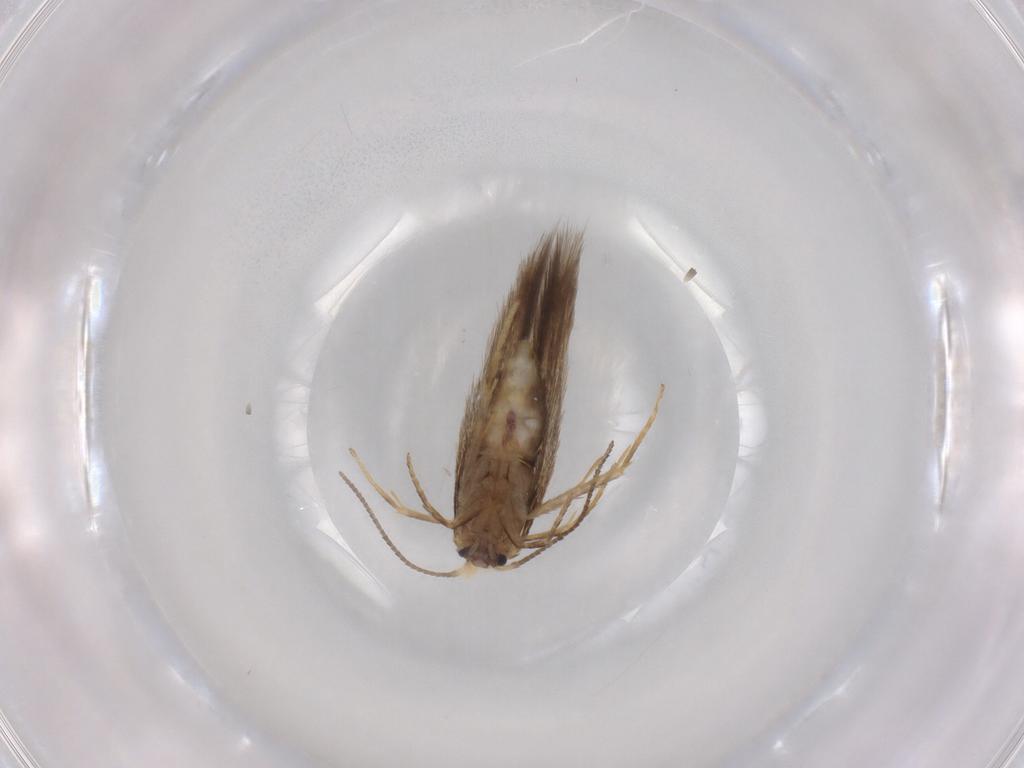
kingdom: Animalia
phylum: Arthropoda
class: Insecta
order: Lepidoptera
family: Nepticulidae
